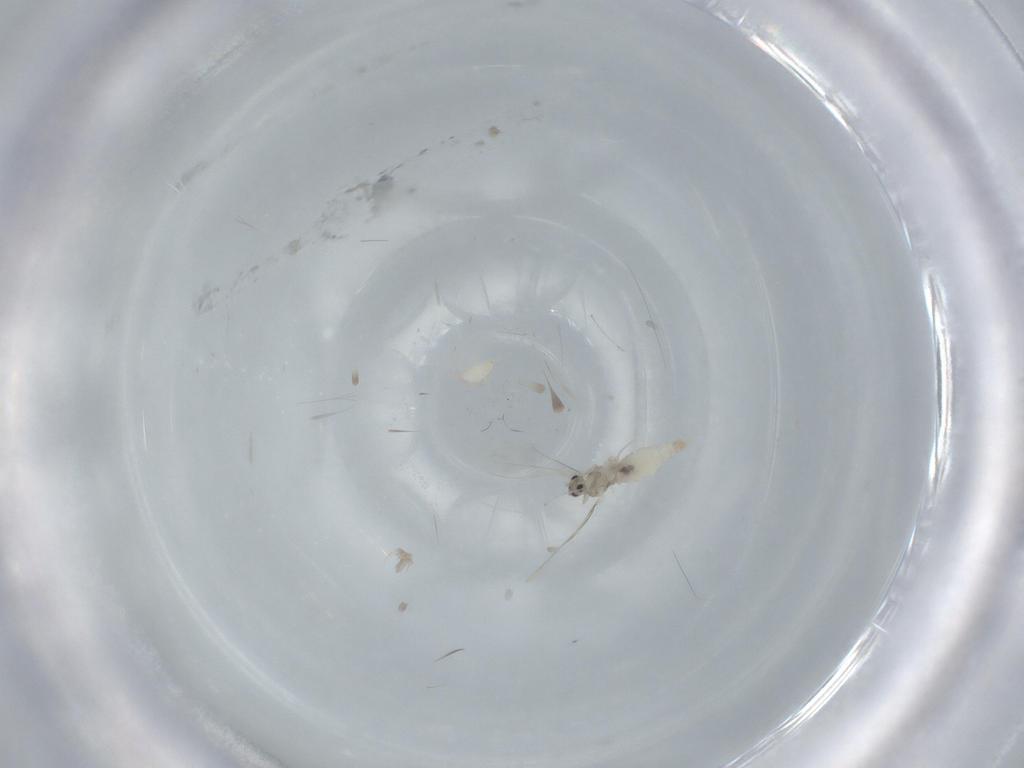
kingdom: Animalia
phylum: Arthropoda
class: Insecta
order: Diptera
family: Cecidomyiidae
